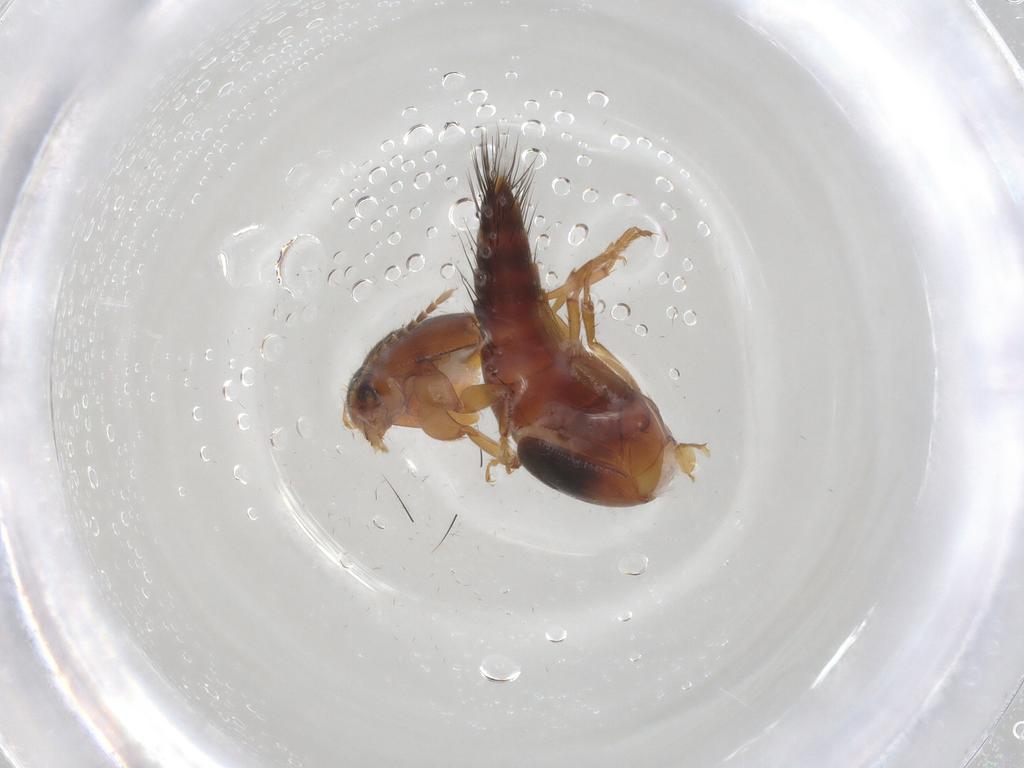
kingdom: Animalia
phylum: Arthropoda
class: Insecta
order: Coleoptera
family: Staphylinidae
